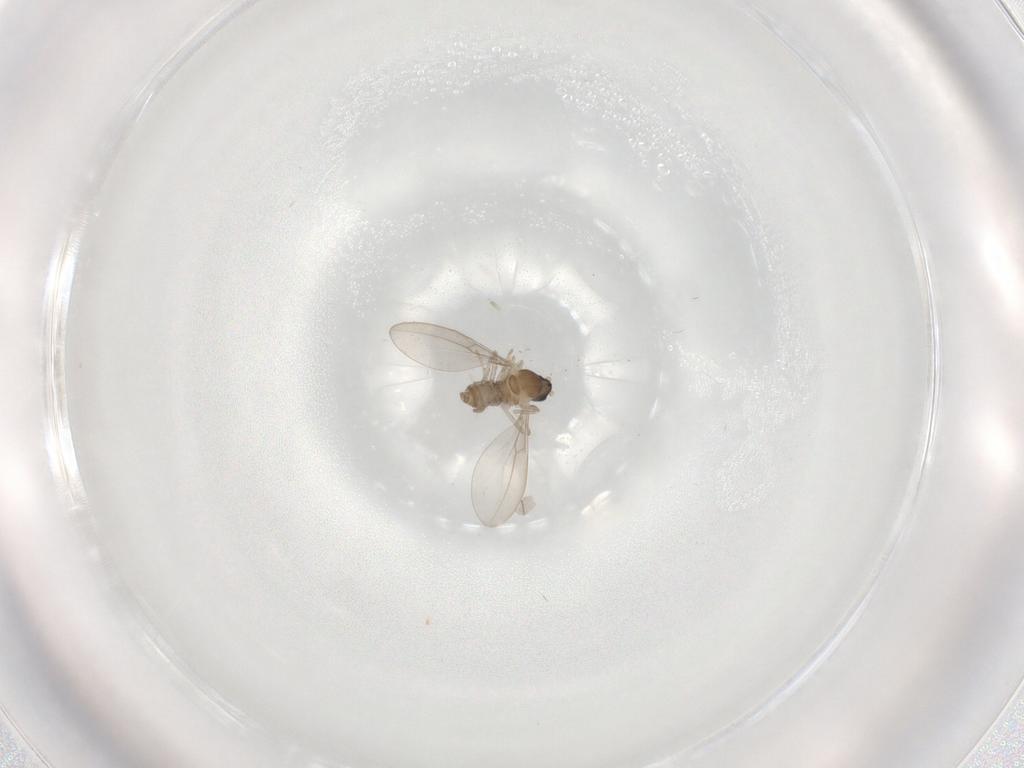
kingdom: Animalia
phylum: Arthropoda
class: Insecta
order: Diptera
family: Cecidomyiidae
